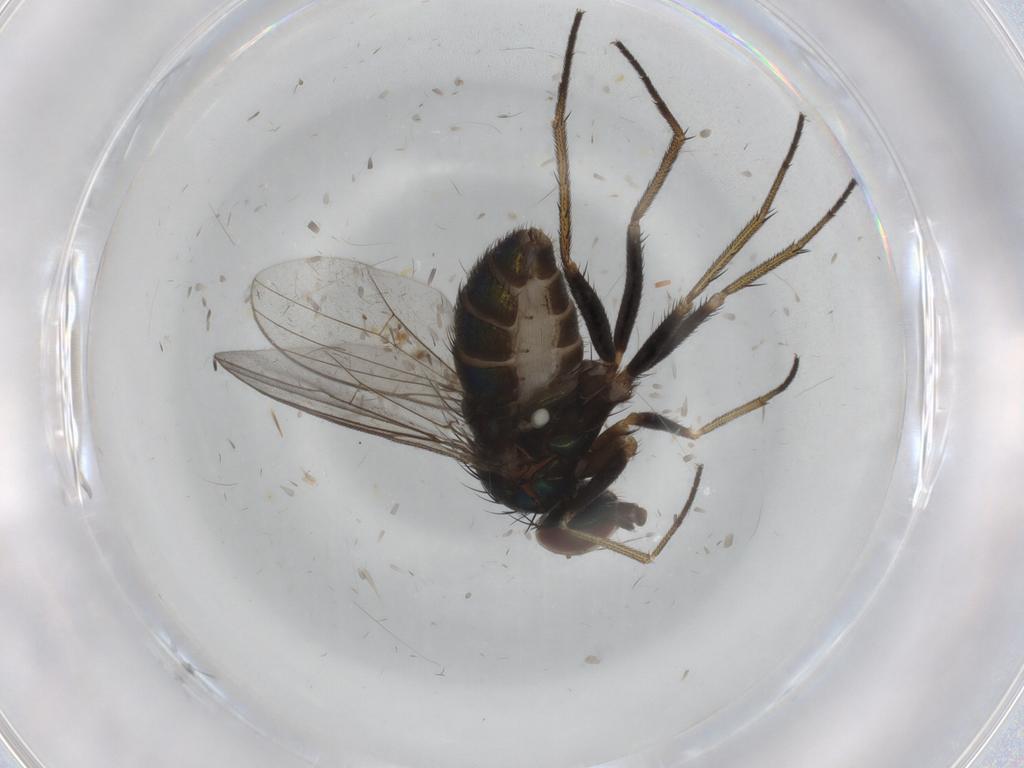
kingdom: Animalia
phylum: Arthropoda
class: Insecta
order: Diptera
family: Dolichopodidae
